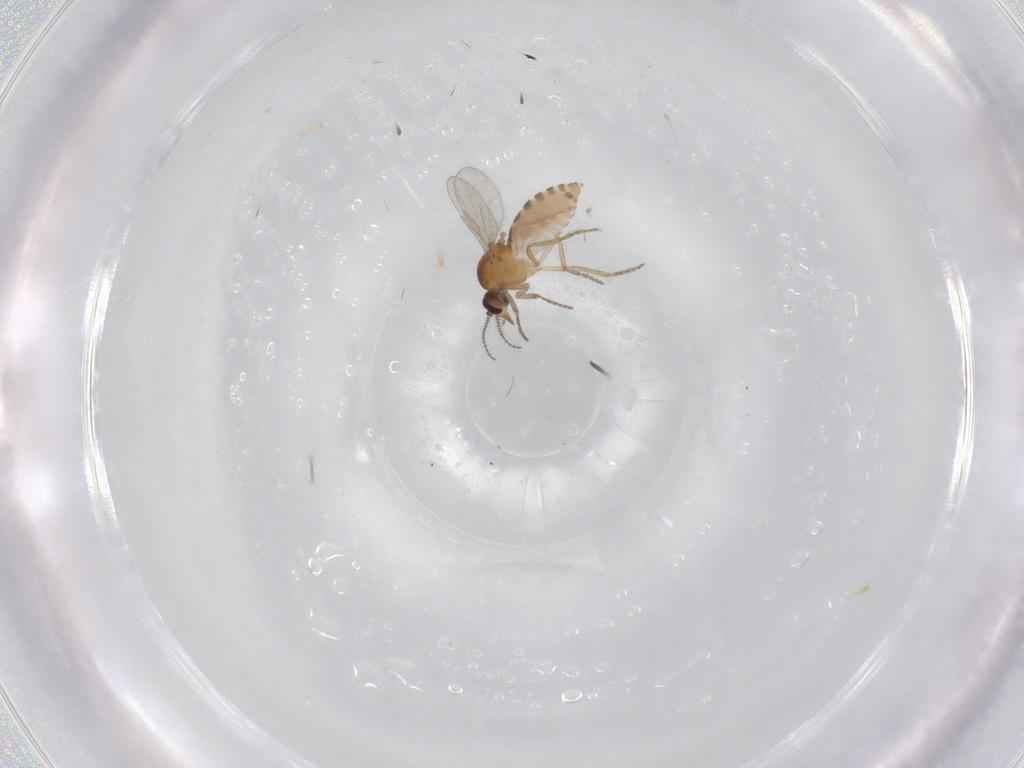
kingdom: Animalia
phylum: Arthropoda
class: Insecta
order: Diptera
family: Ceratopogonidae
